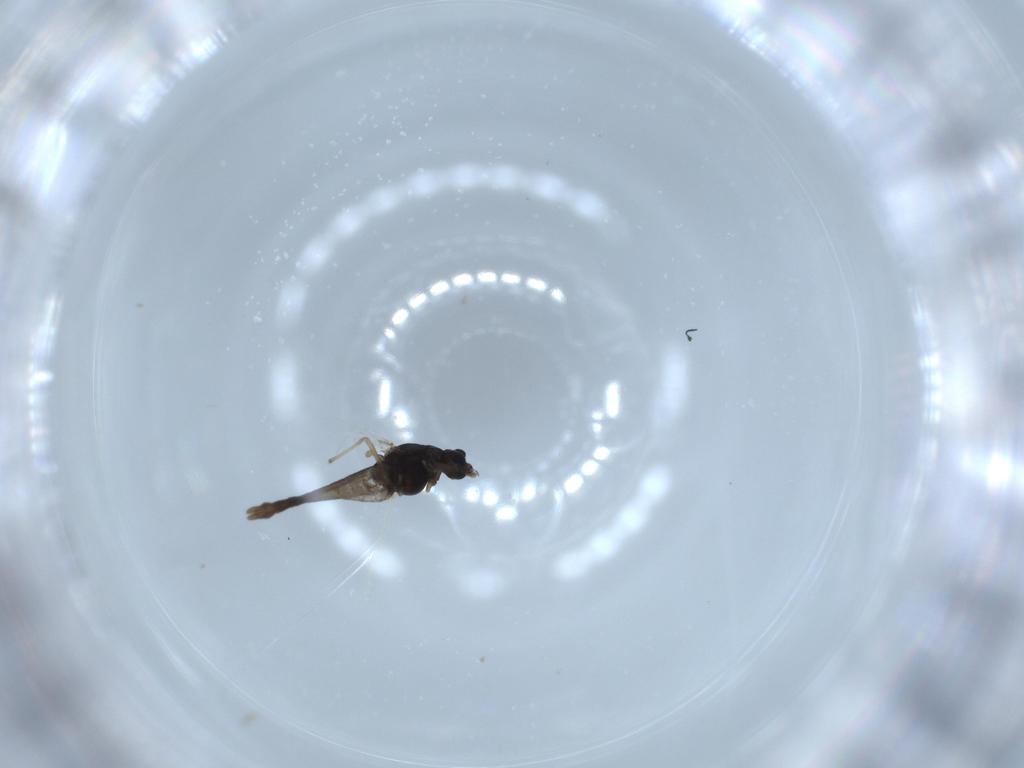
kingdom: Animalia
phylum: Arthropoda
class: Insecta
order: Diptera
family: Chironomidae
